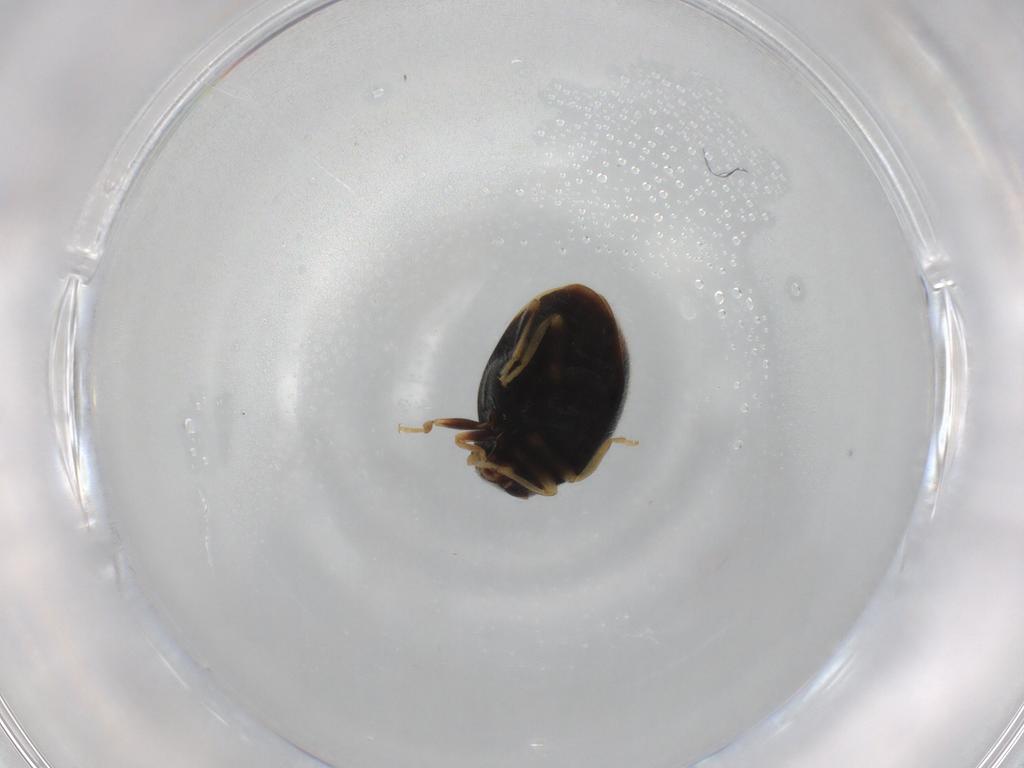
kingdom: Animalia
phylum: Arthropoda
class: Insecta
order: Coleoptera
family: Coccinellidae
